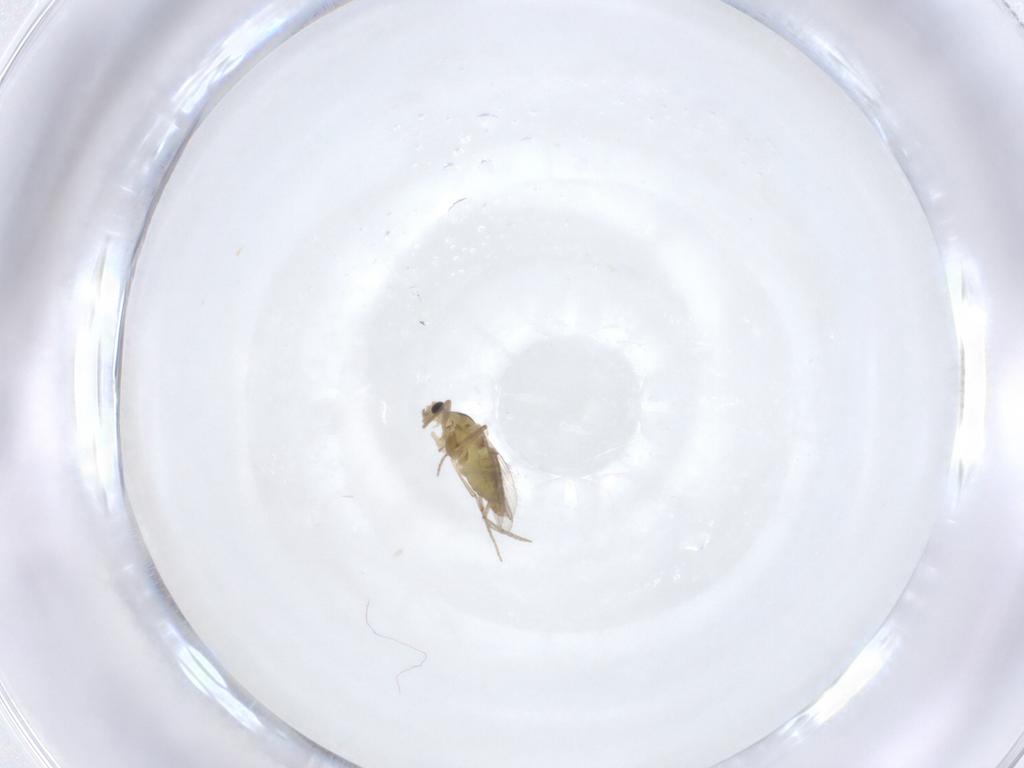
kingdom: Animalia
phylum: Arthropoda
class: Insecta
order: Diptera
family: Chironomidae
